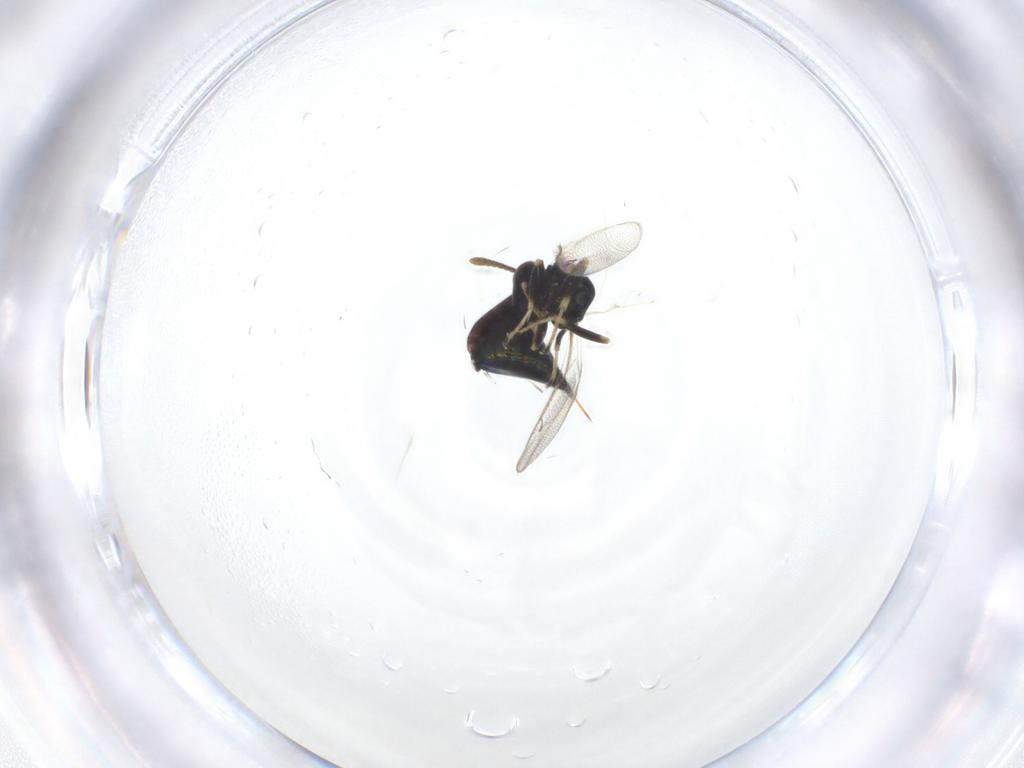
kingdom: Animalia
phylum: Arthropoda
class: Insecta
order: Hymenoptera
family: Pteromalidae
